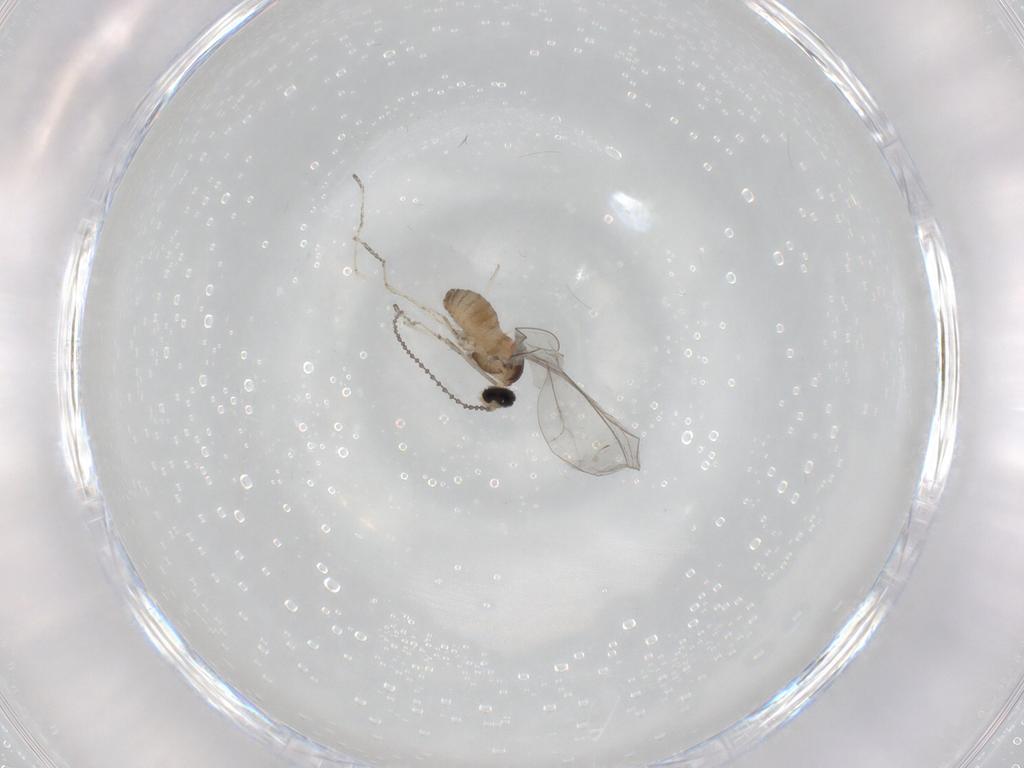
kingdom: Animalia
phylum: Arthropoda
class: Insecta
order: Diptera
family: Cecidomyiidae
